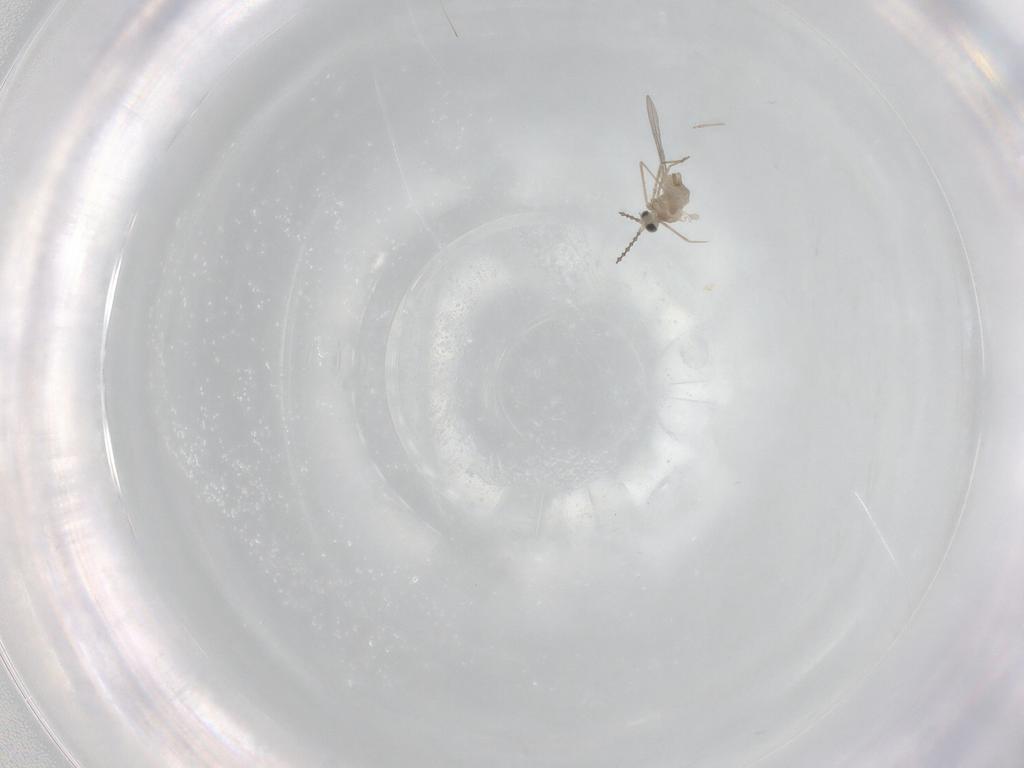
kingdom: Animalia
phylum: Arthropoda
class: Insecta
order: Diptera
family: Cecidomyiidae
